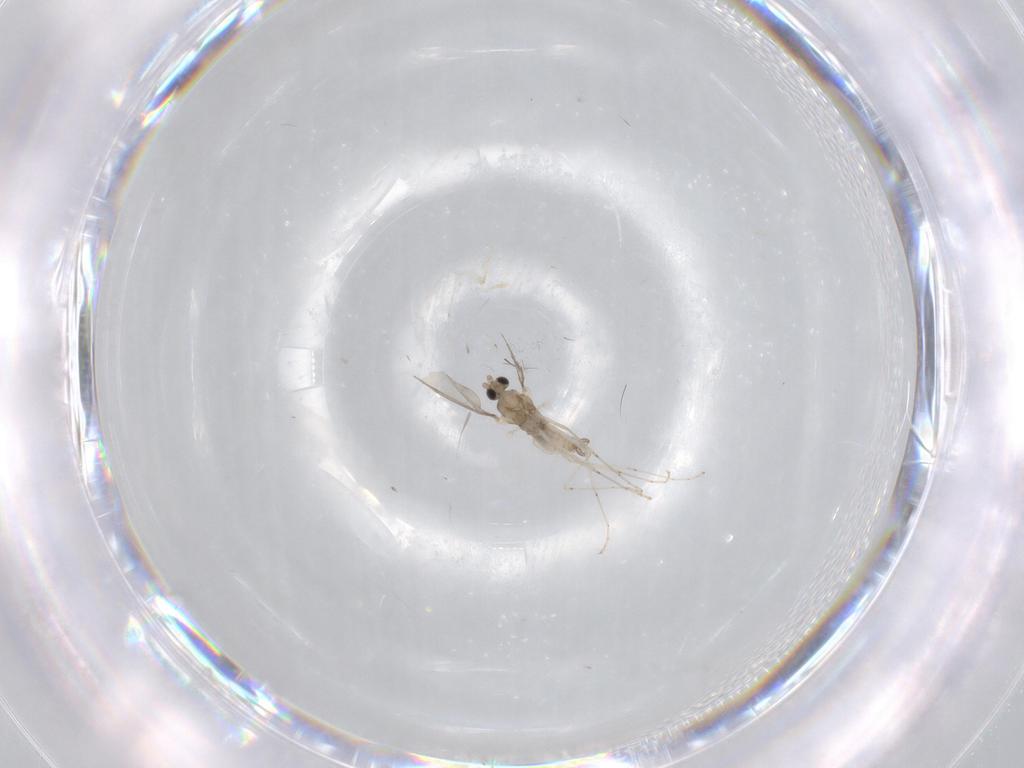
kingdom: Animalia
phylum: Arthropoda
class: Insecta
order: Diptera
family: Cecidomyiidae
